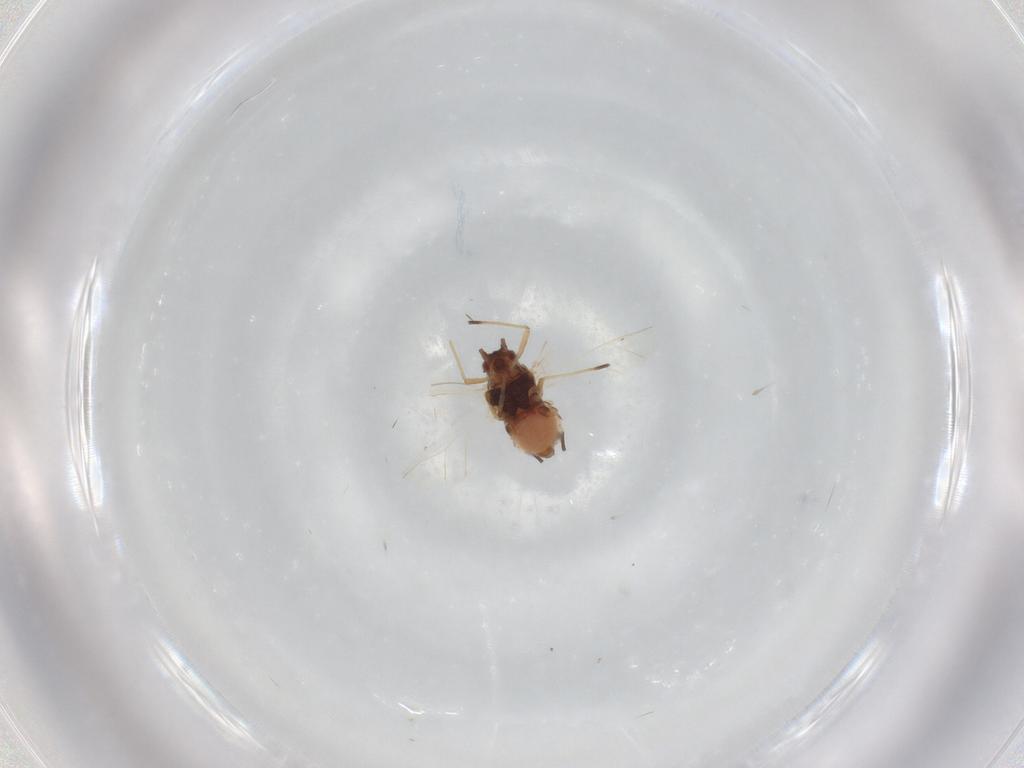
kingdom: Animalia
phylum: Arthropoda
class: Insecta
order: Hemiptera
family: Aphididae
